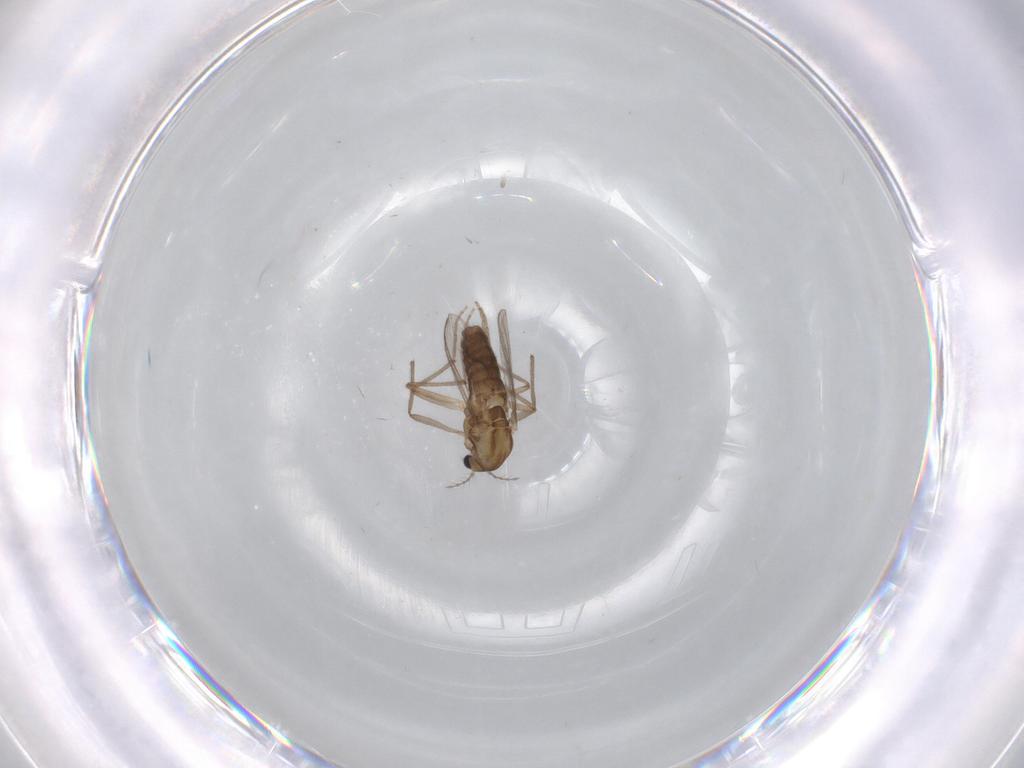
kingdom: Animalia
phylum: Arthropoda
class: Insecta
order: Diptera
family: Chironomidae
